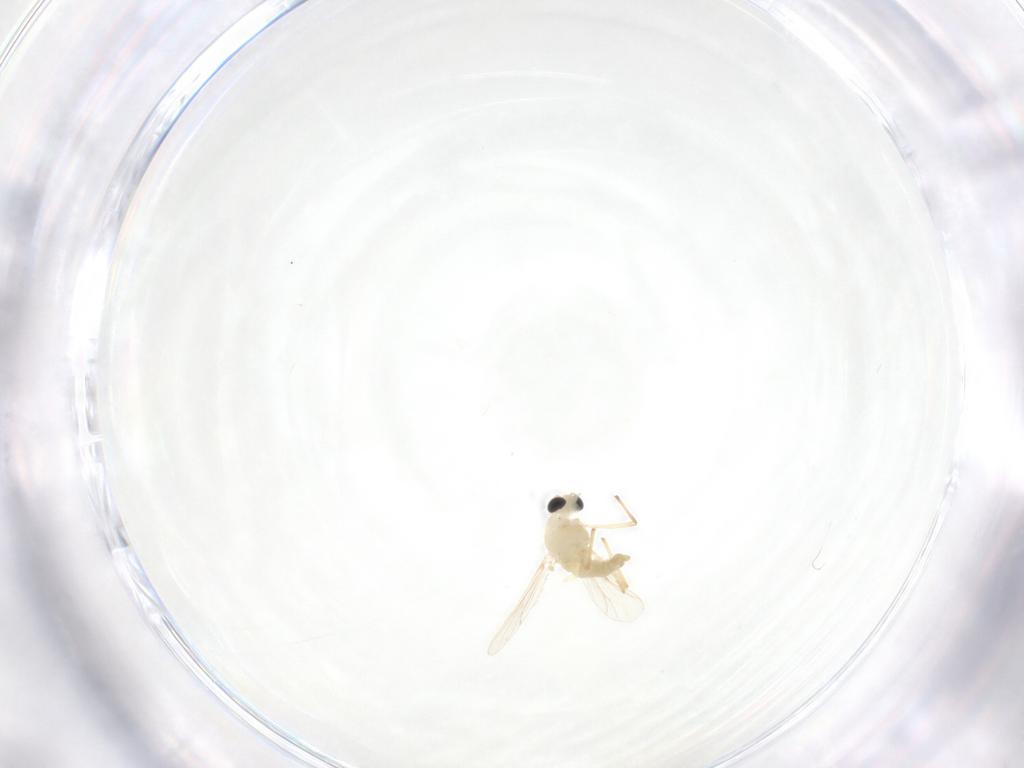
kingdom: Animalia
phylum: Arthropoda
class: Insecta
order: Diptera
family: Chironomidae
